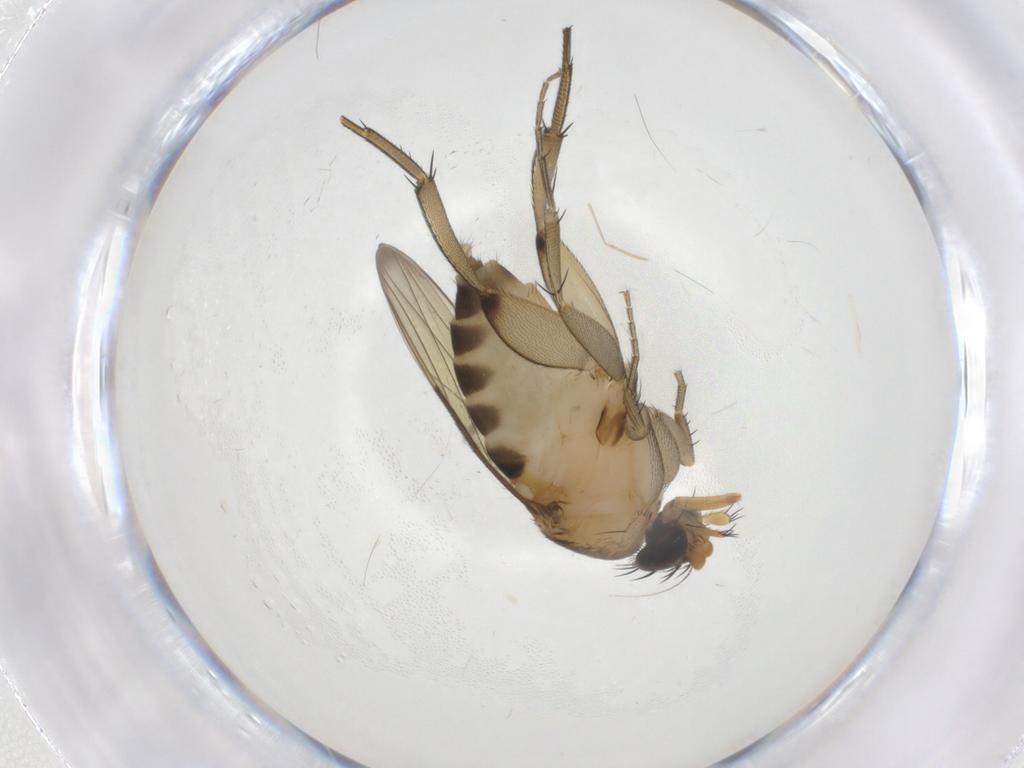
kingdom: Animalia
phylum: Arthropoda
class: Insecta
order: Diptera
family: Phoridae
